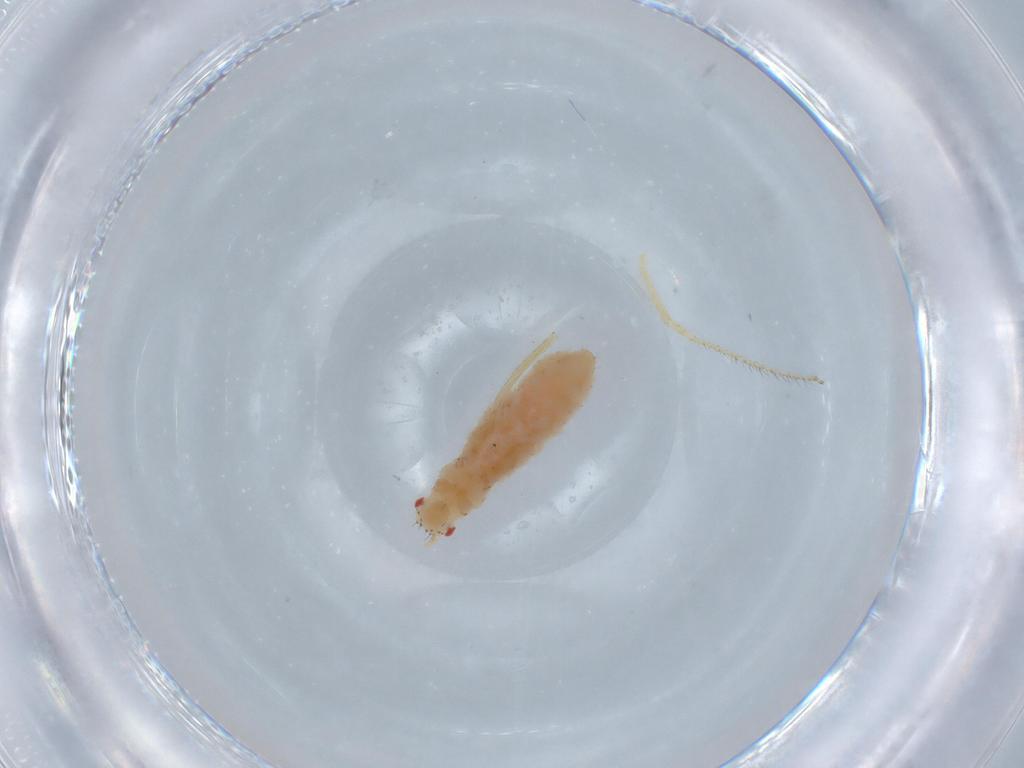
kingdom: Animalia
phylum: Arthropoda
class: Insecta
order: Hemiptera
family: Aphididae
